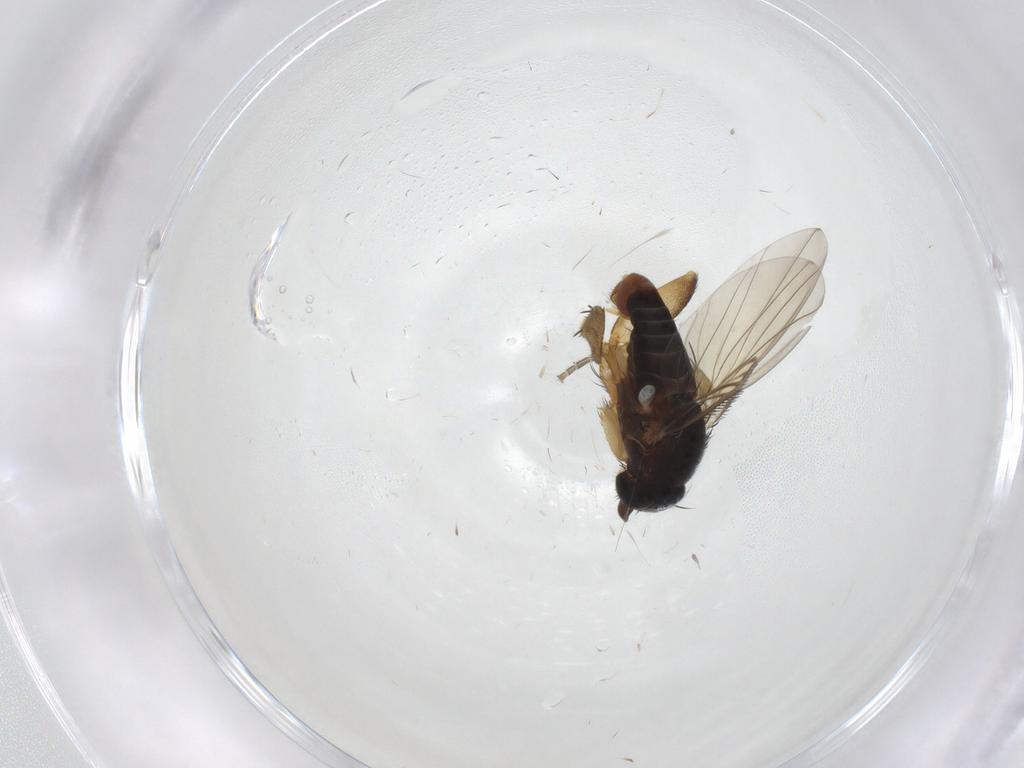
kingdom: Animalia
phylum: Arthropoda
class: Insecta
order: Diptera
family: Phoridae
